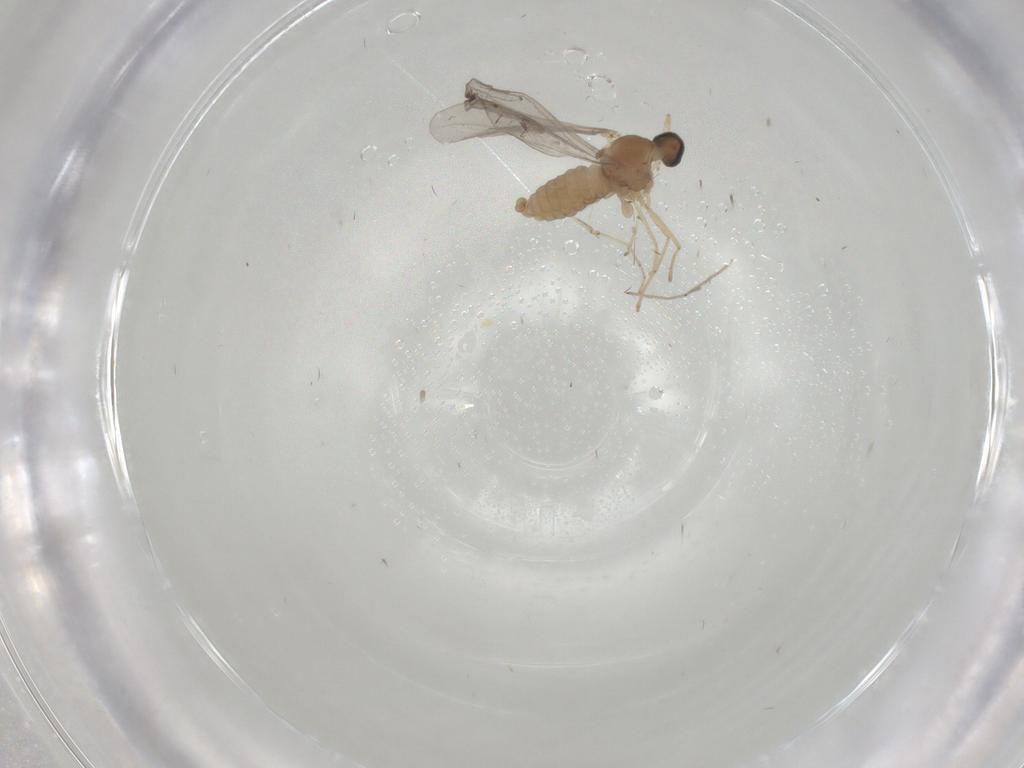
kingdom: Animalia
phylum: Arthropoda
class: Insecta
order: Diptera
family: Cecidomyiidae
